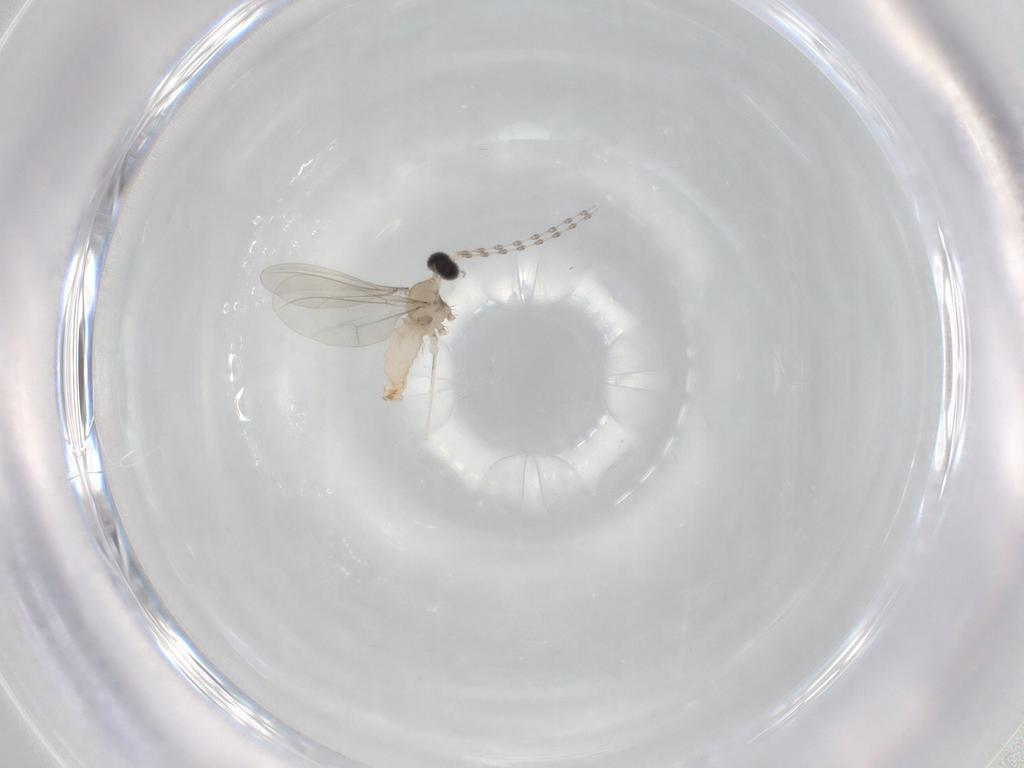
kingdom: Animalia
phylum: Arthropoda
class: Insecta
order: Diptera
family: Cecidomyiidae
